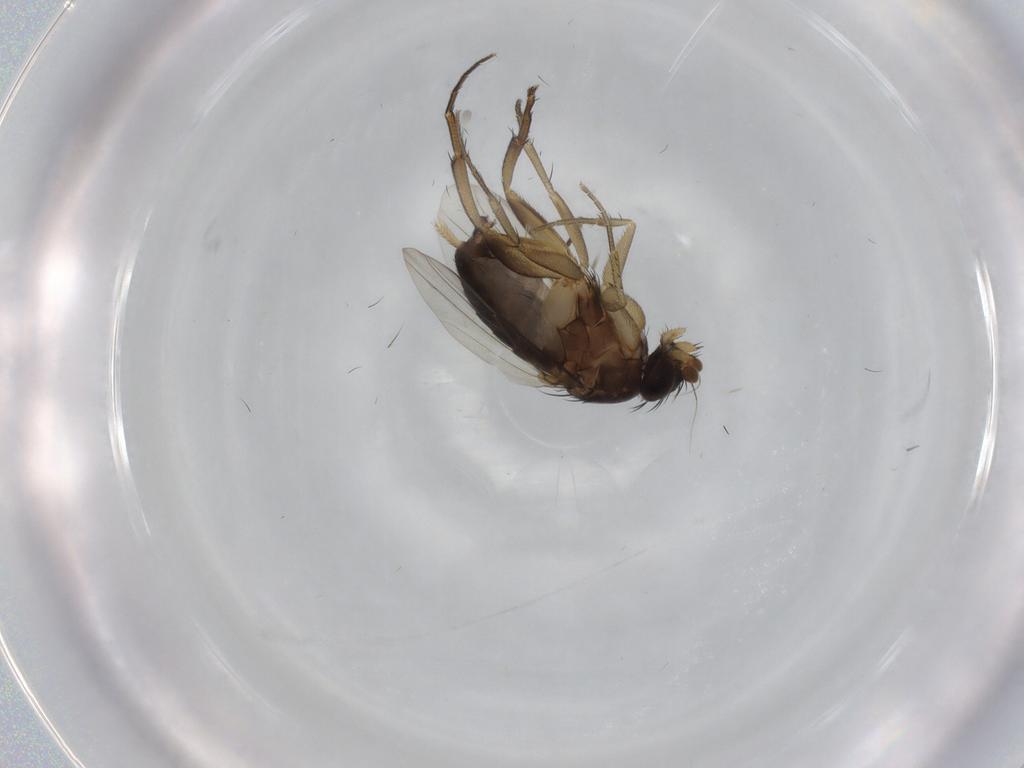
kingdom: Animalia
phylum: Arthropoda
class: Insecta
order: Diptera
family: Phoridae
